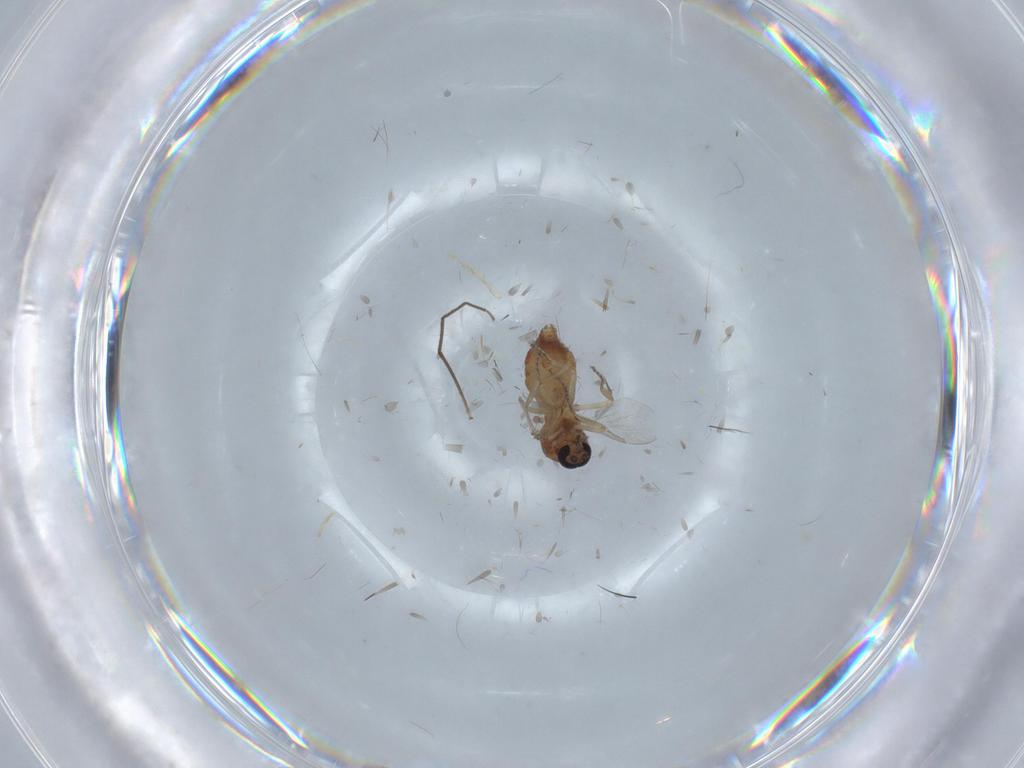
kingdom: Animalia
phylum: Arthropoda
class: Insecta
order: Diptera
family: Ceratopogonidae
